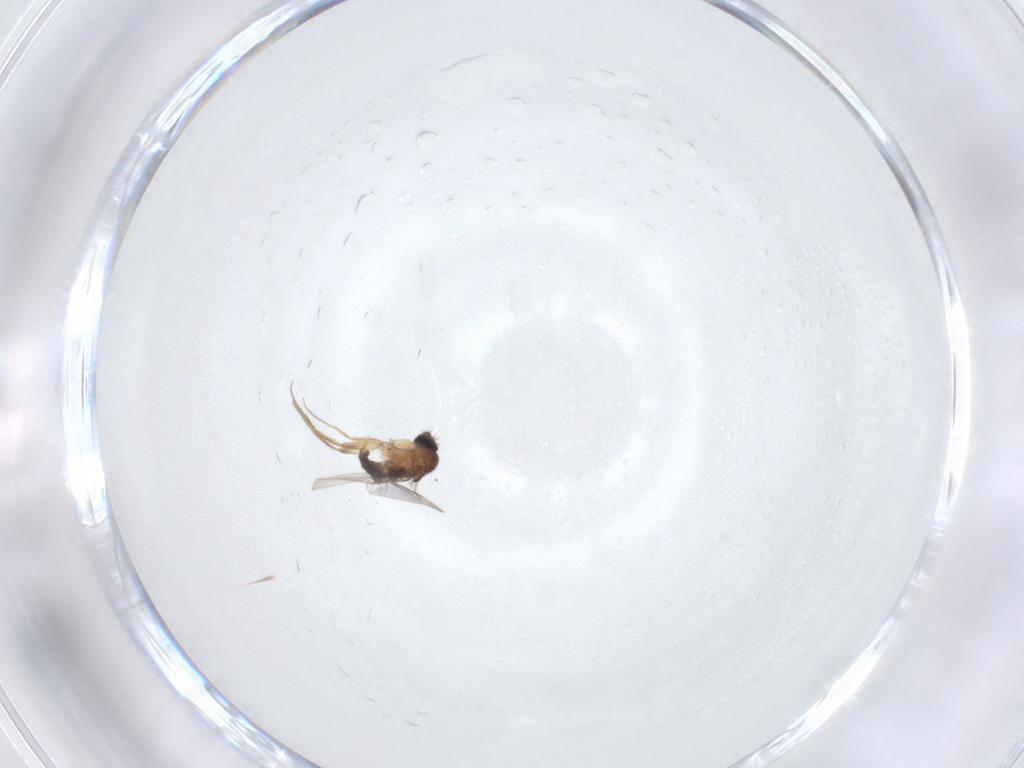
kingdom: Animalia
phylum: Arthropoda
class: Insecta
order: Diptera
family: Phoridae
